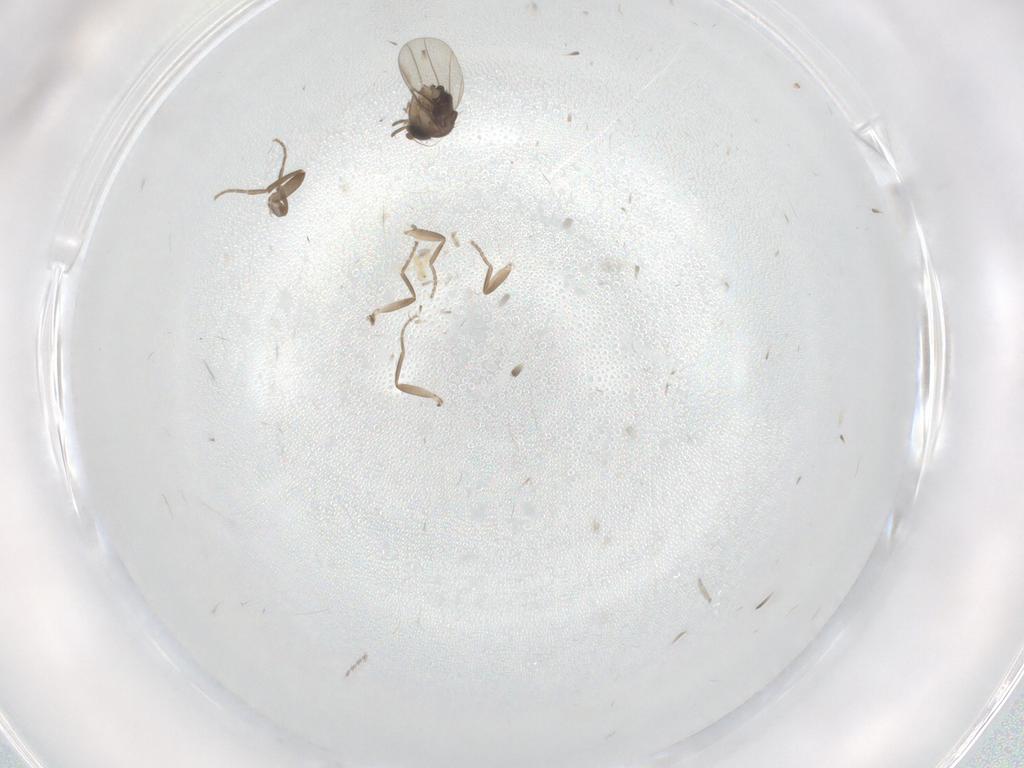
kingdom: Animalia
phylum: Arthropoda
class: Insecta
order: Diptera
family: Cecidomyiidae
